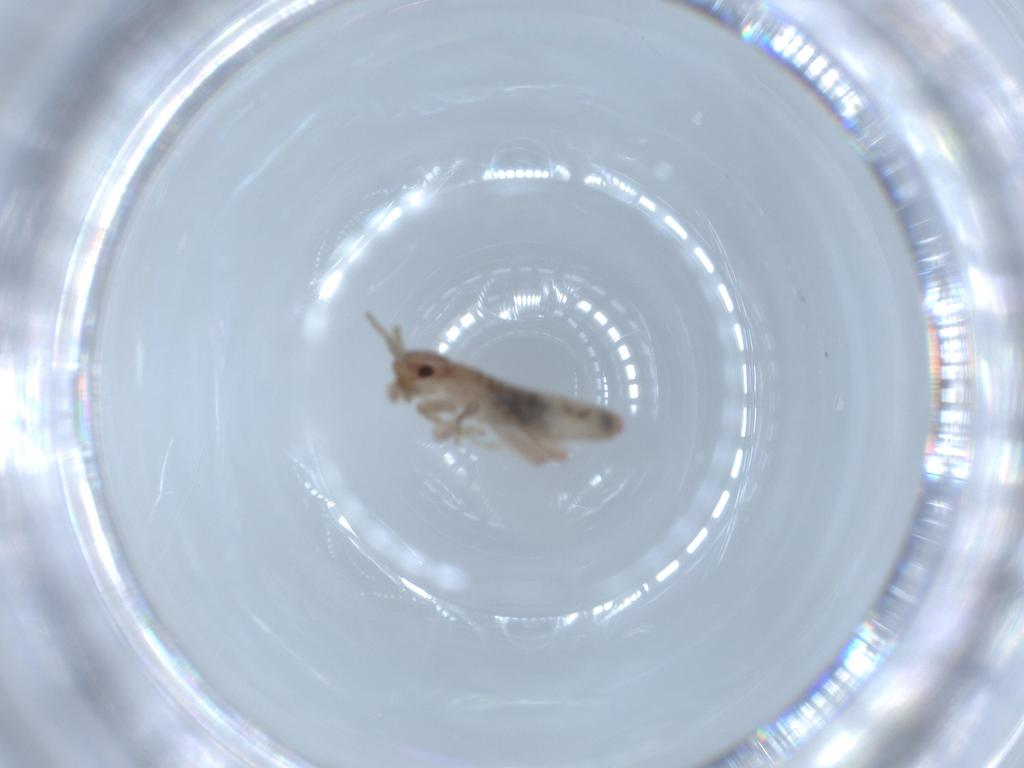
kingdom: Animalia
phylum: Arthropoda
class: Insecta
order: Orthoptera
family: Mogoplistidae
